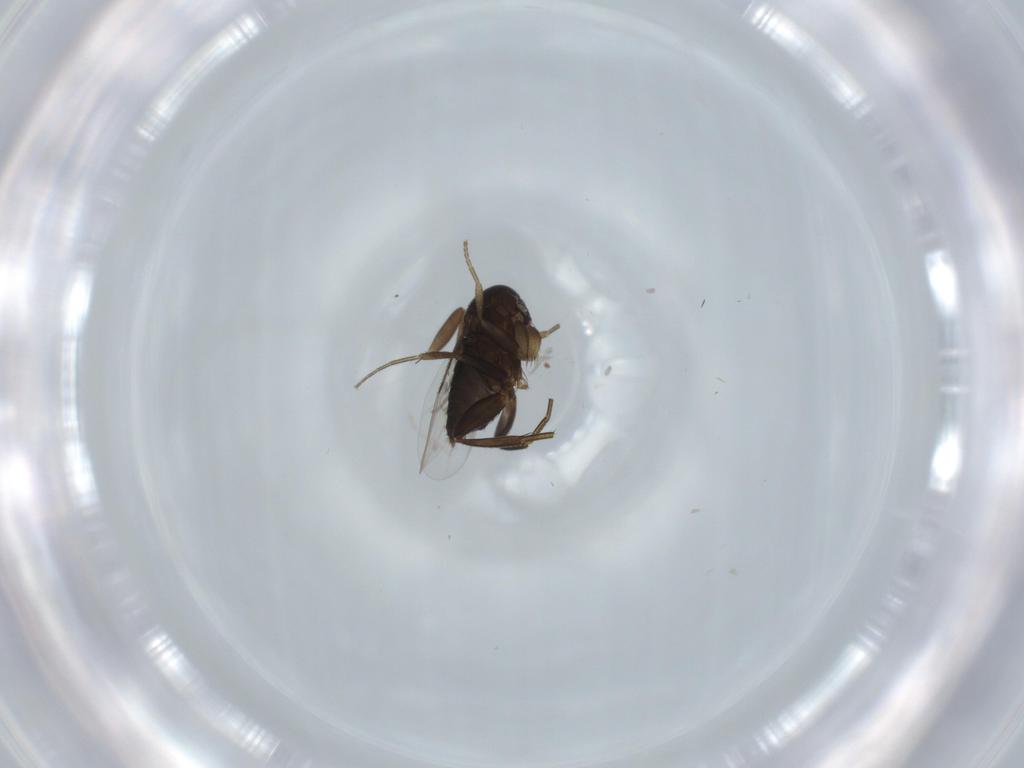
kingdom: Animalia
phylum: Arthropoda
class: Insecta
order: Diptera
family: Phoridae
